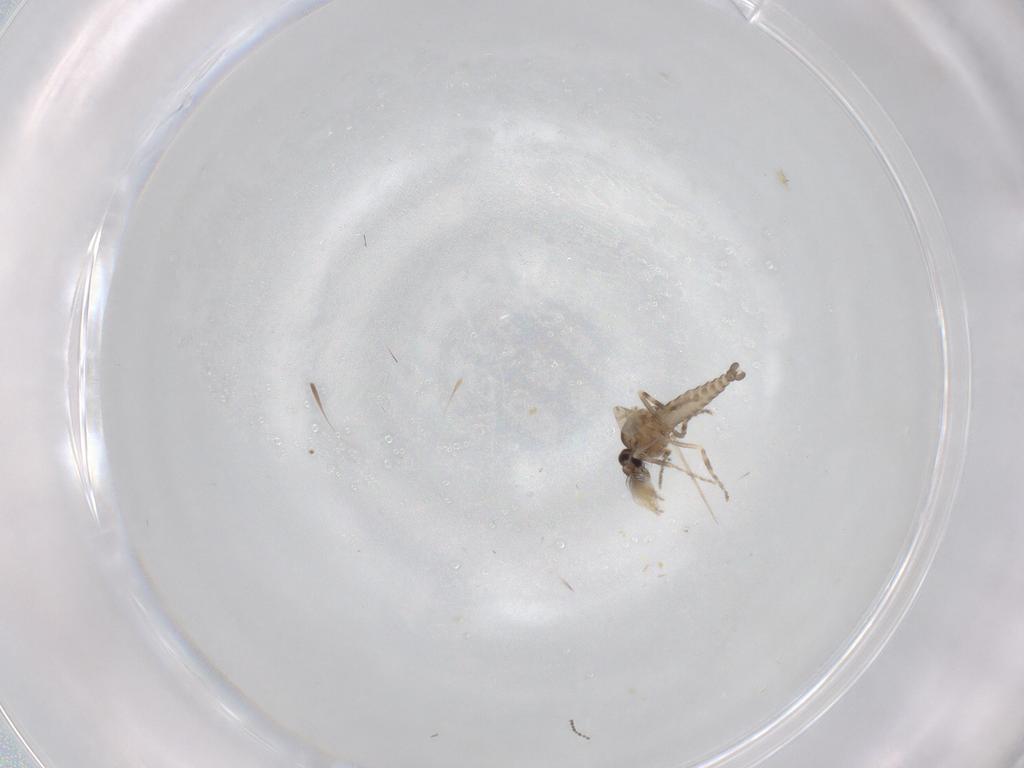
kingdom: Animalia
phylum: Arthropoda
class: Insecta
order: Diptera
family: Ceratopogonidae
